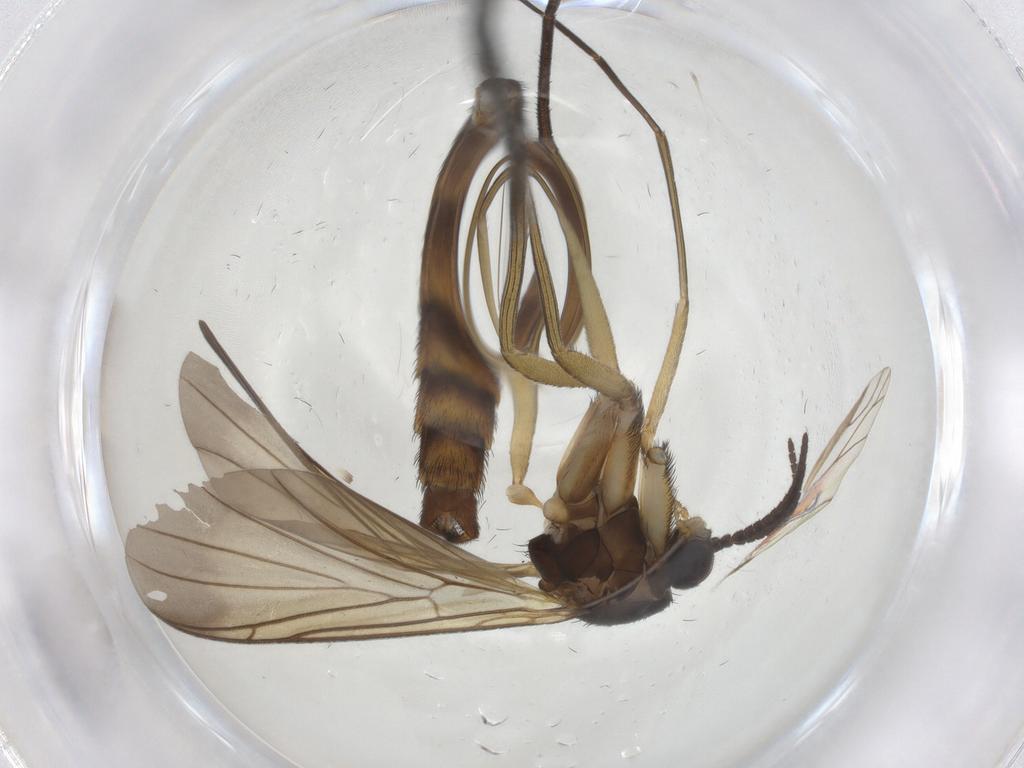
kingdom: Animalia
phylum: Arthropoda
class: Insecta
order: Diptera
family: Keroplatidae
